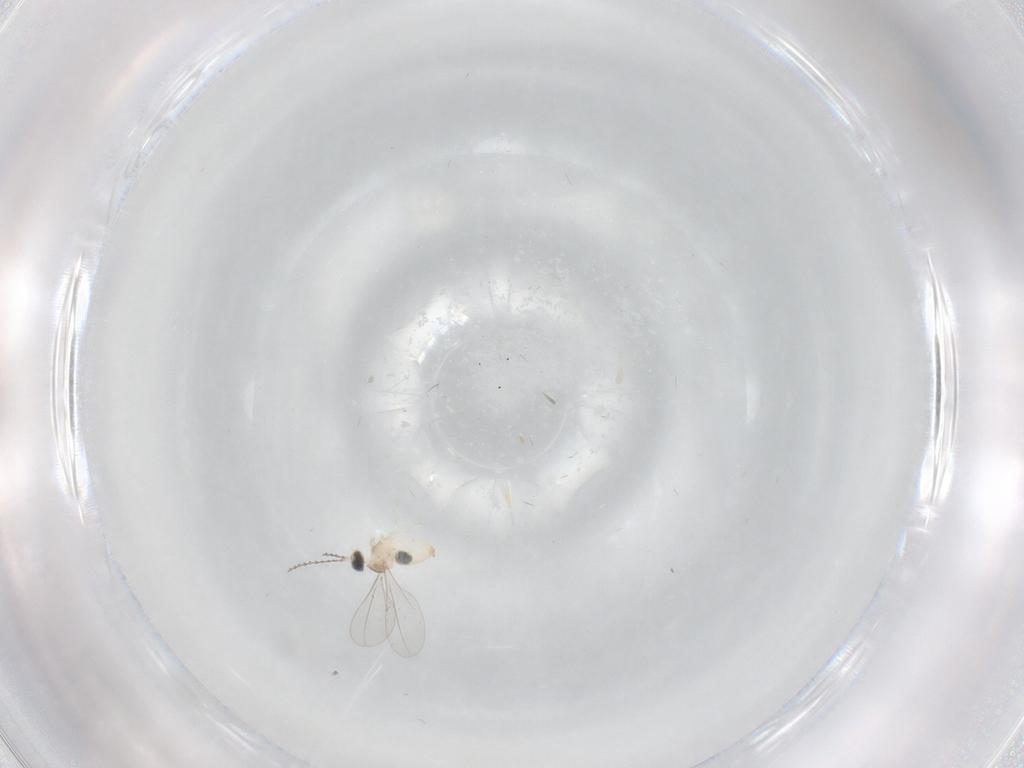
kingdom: Animalia
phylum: Arthropoda
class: Insecta
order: Diptera
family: Cecidomyiidae
